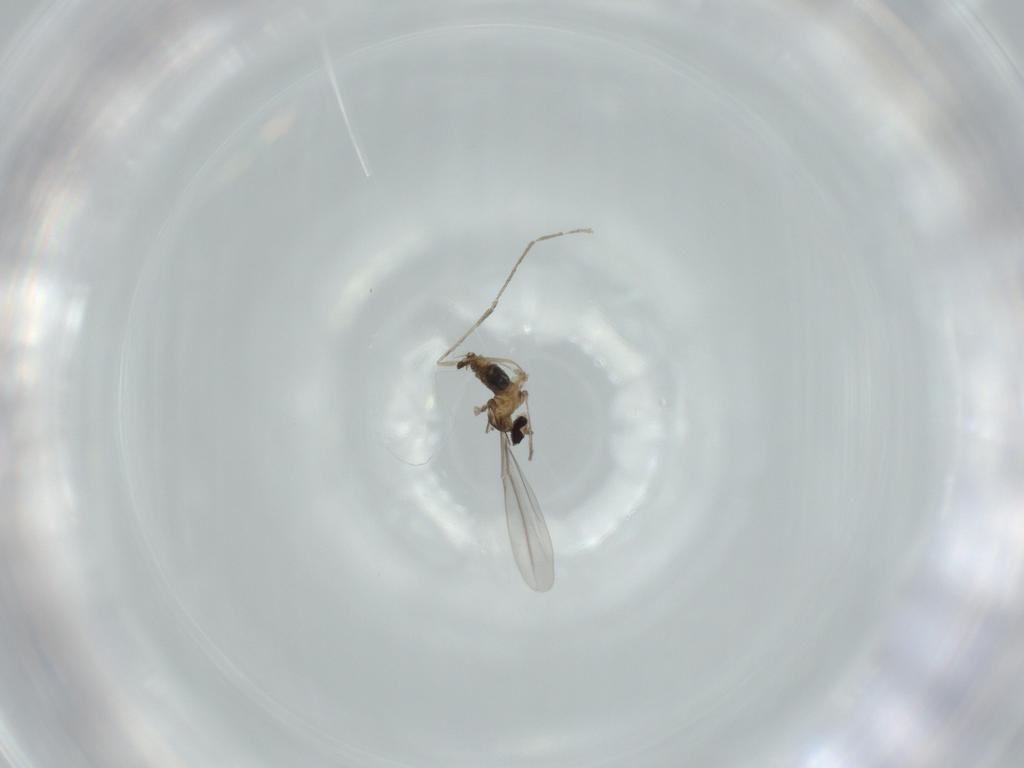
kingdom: Animalia
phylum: Arthropoda
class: Insecta
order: Diptera
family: Cecidomyiidae
